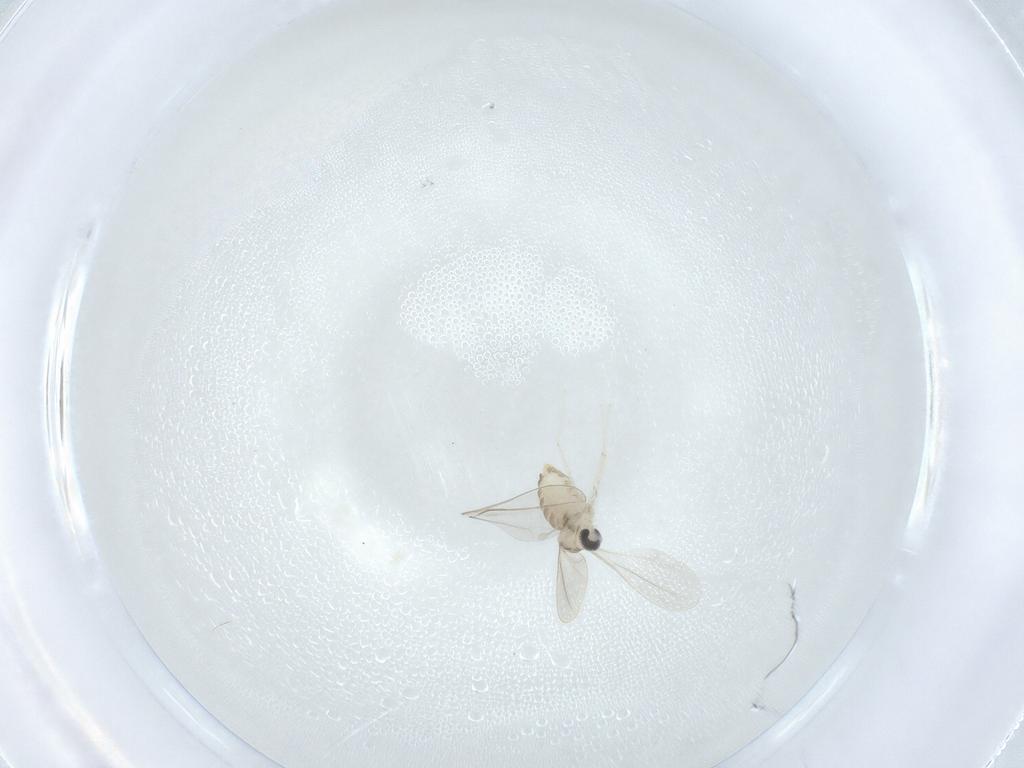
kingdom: Animalia
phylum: Arthropoda
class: Insecta
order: Diptera
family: Cecidomyiidae
